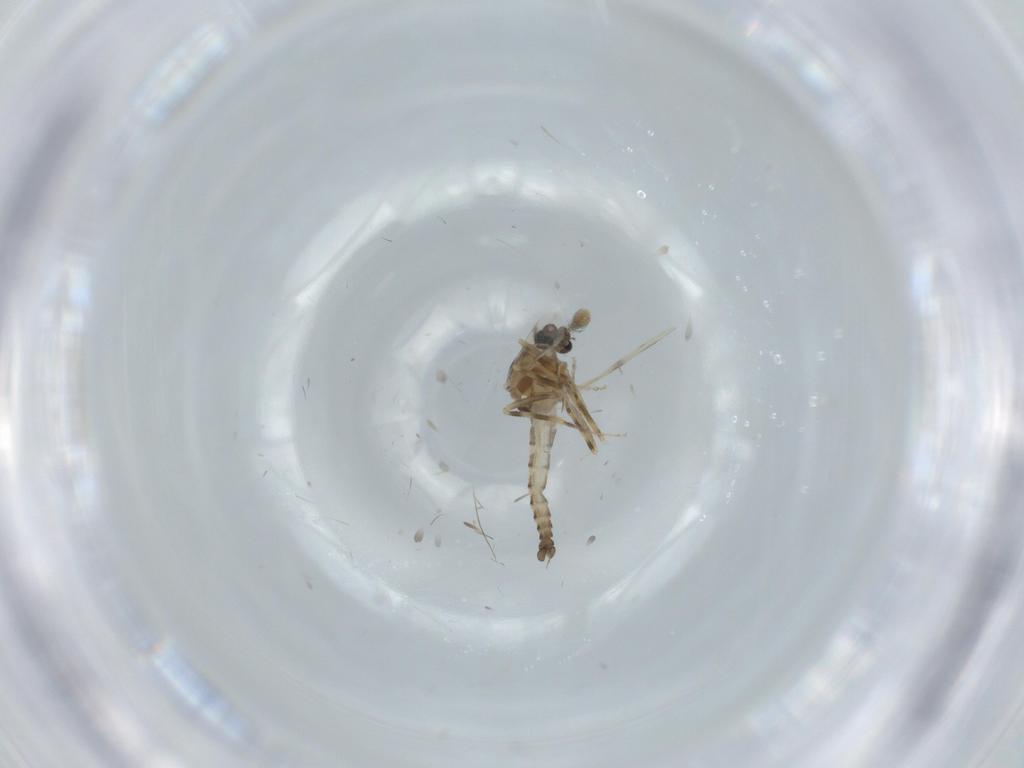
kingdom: Animalia
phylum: Arthropoda
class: Insecta
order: Diptera
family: Ceratopogonidae
